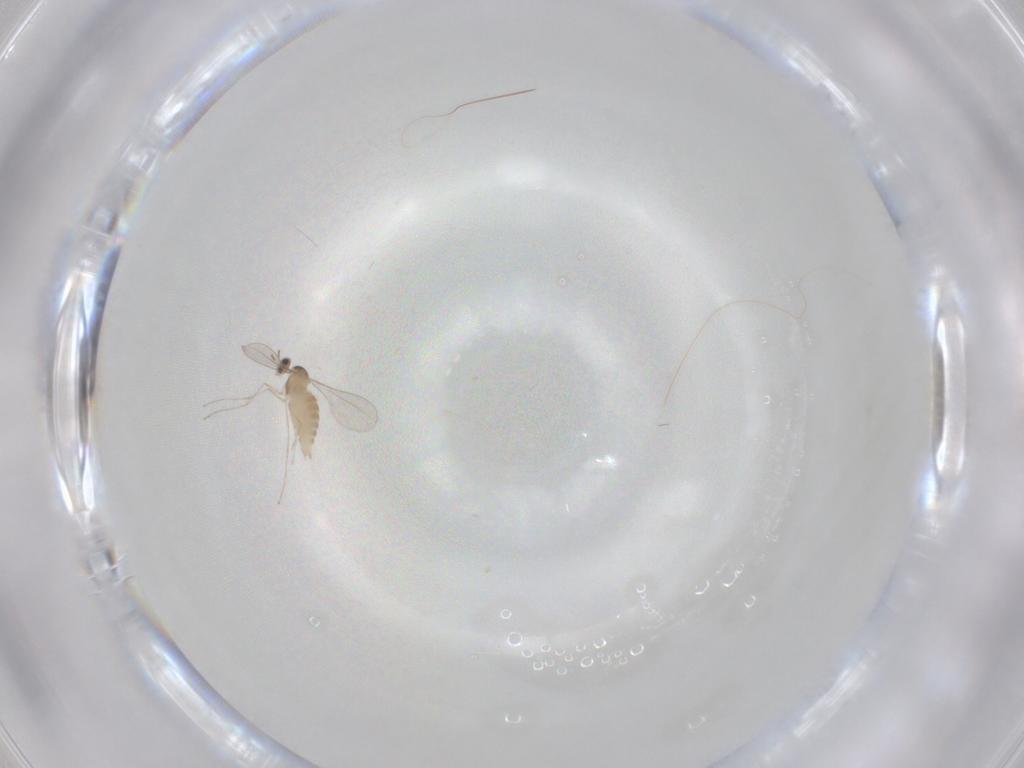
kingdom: Animalia
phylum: Arthropoda
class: Insecta
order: Diptera
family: Cecidomyiidae
